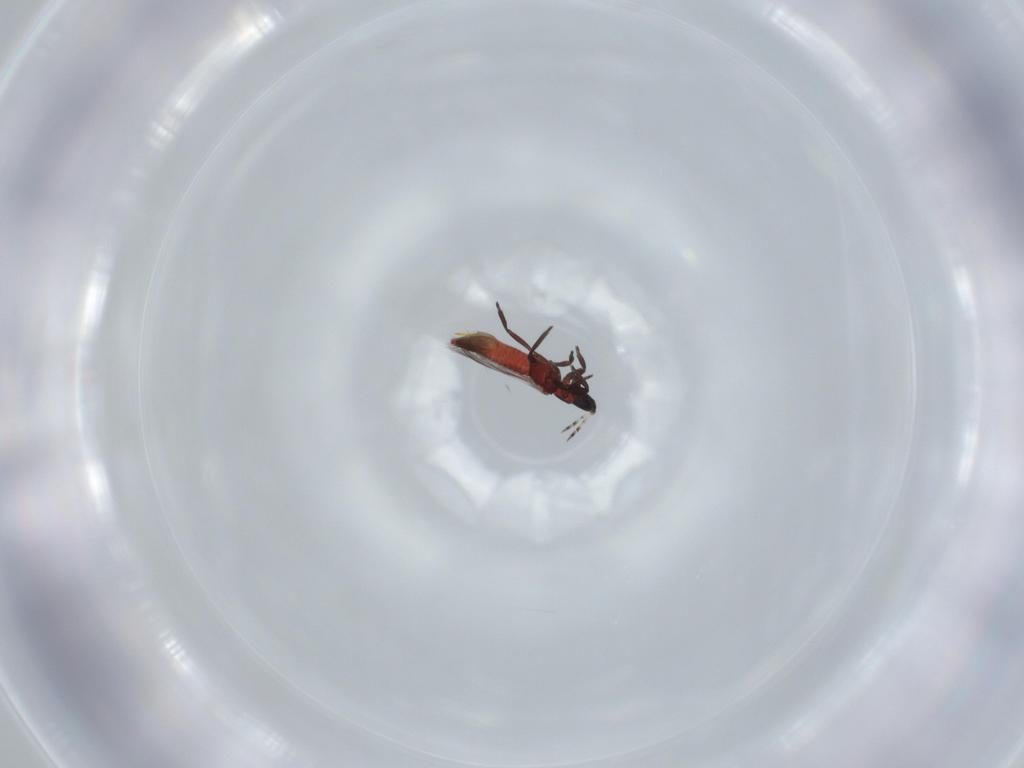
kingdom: Animalia
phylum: Arthropoda
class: Insecta
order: Thysanoptera
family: Aeolothripidae
